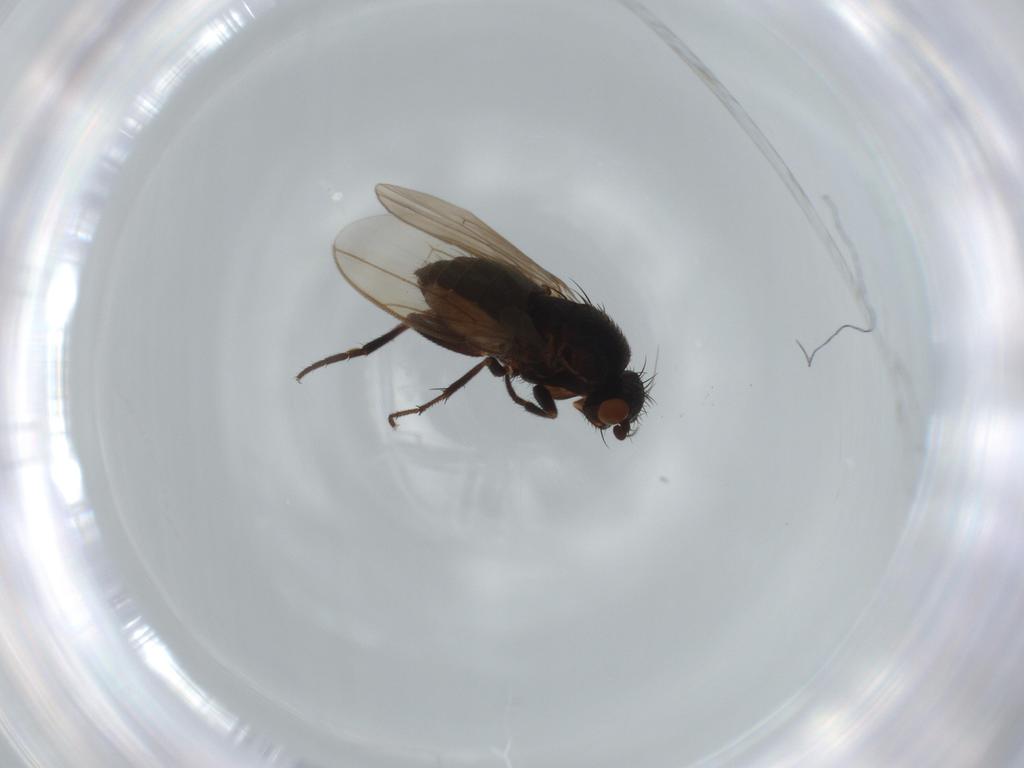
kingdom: Animalia
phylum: Arthropoda
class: Insecta
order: Diptera
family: Sphaeroceridae
